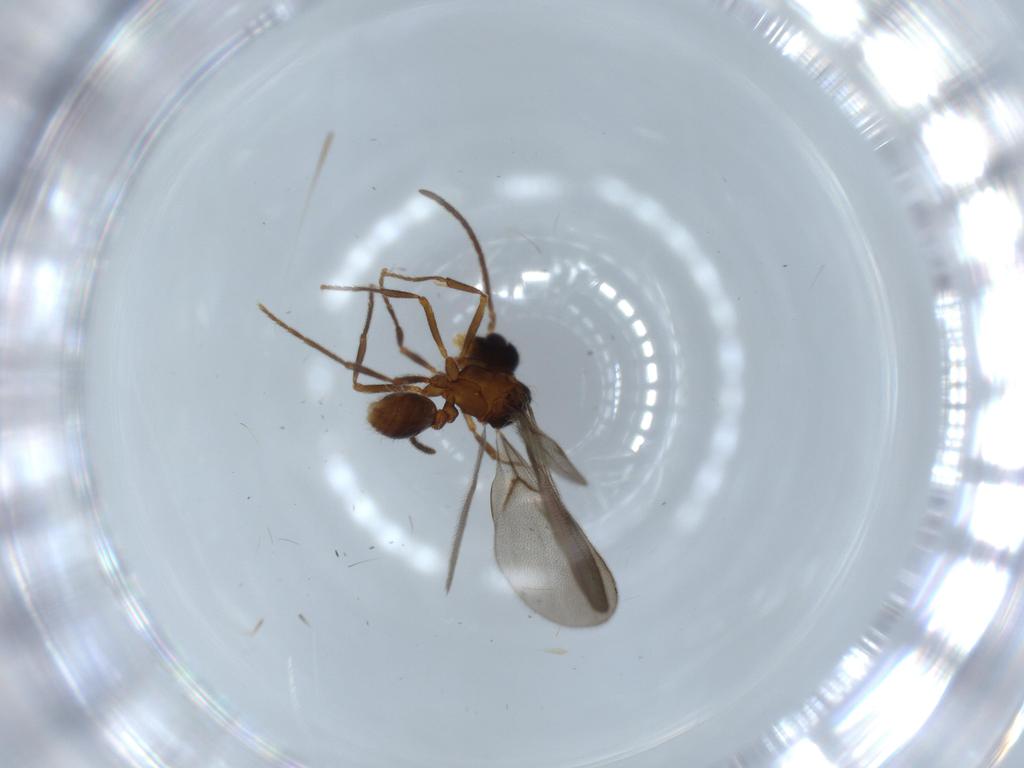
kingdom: Animalia
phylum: Arthropoda
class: Insecta
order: Hymenoptera
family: Formicidae
